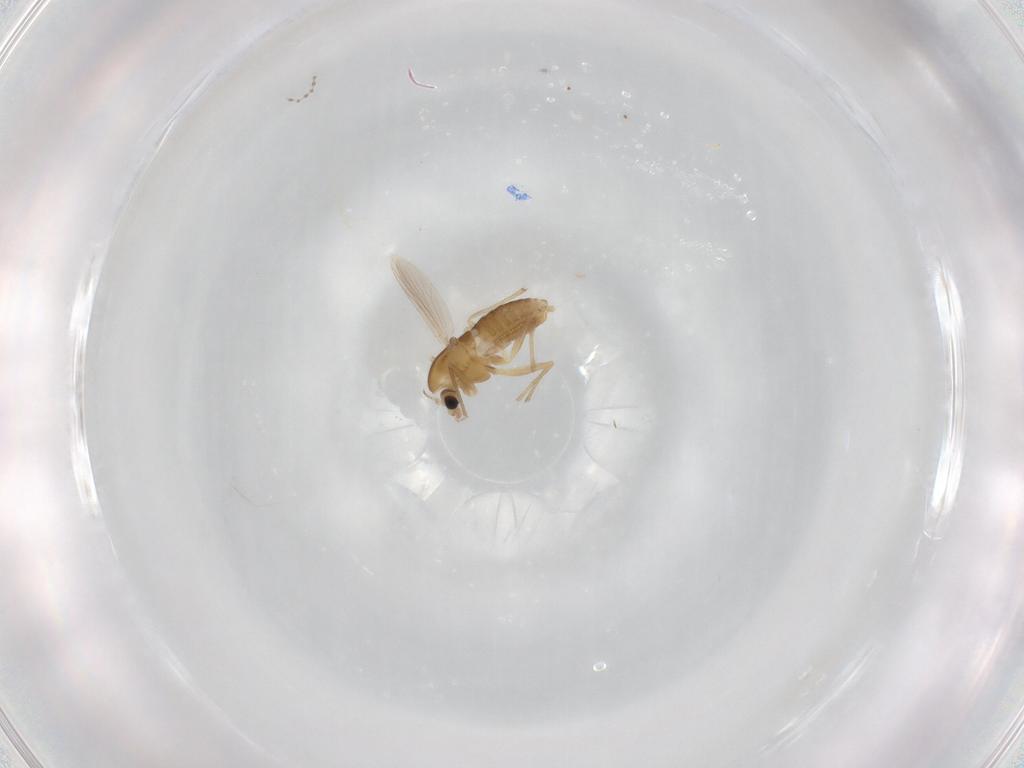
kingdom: Animalia
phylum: Arthropoda
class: Insecta
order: Diptera
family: Chironomidae
